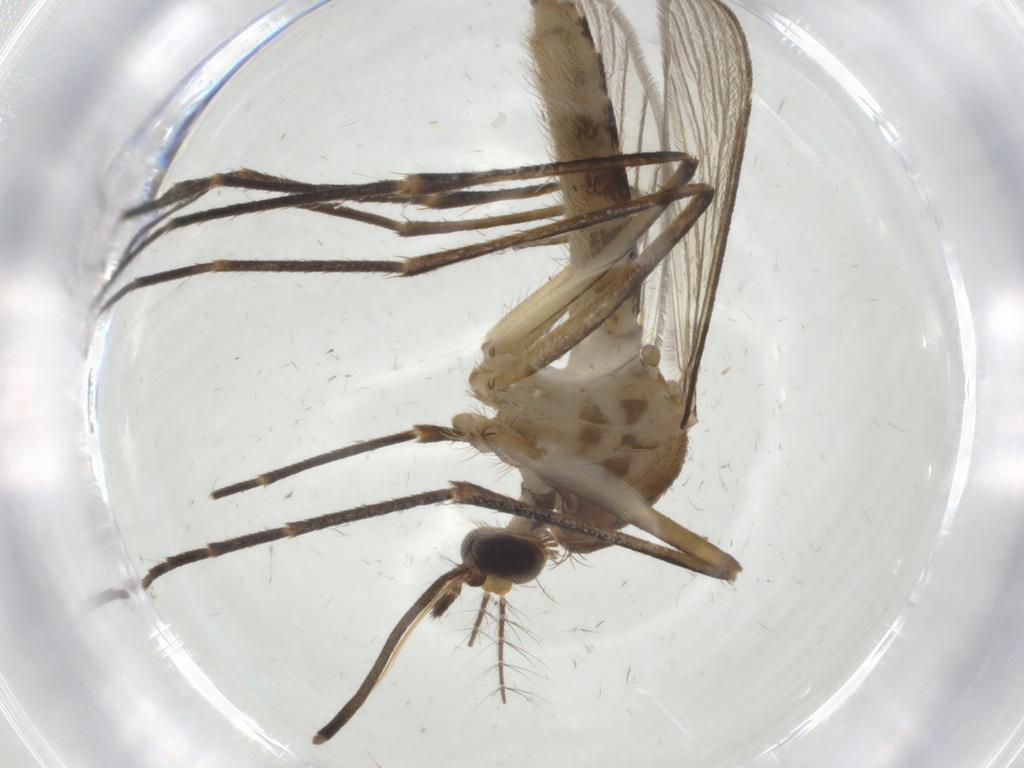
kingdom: Animalia
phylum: Arthropoda
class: Insecta
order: Diptera
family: Culicidae
